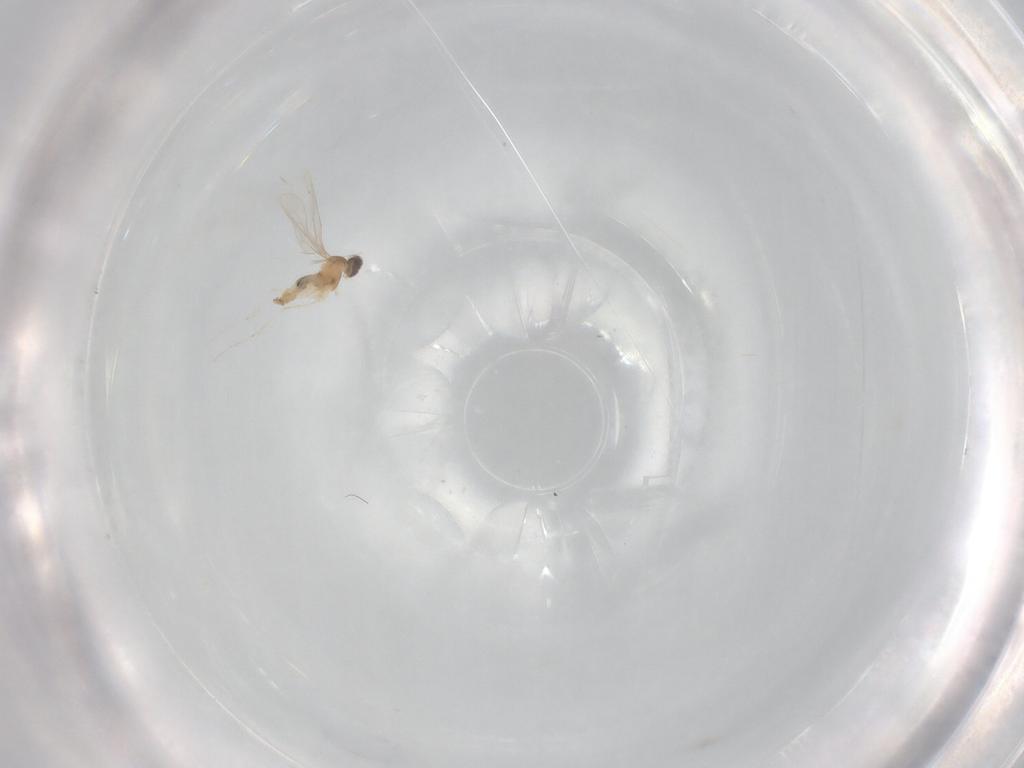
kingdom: Animalia
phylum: Arthropoda
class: Insecta
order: Diptera
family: Cecidomyiidae
